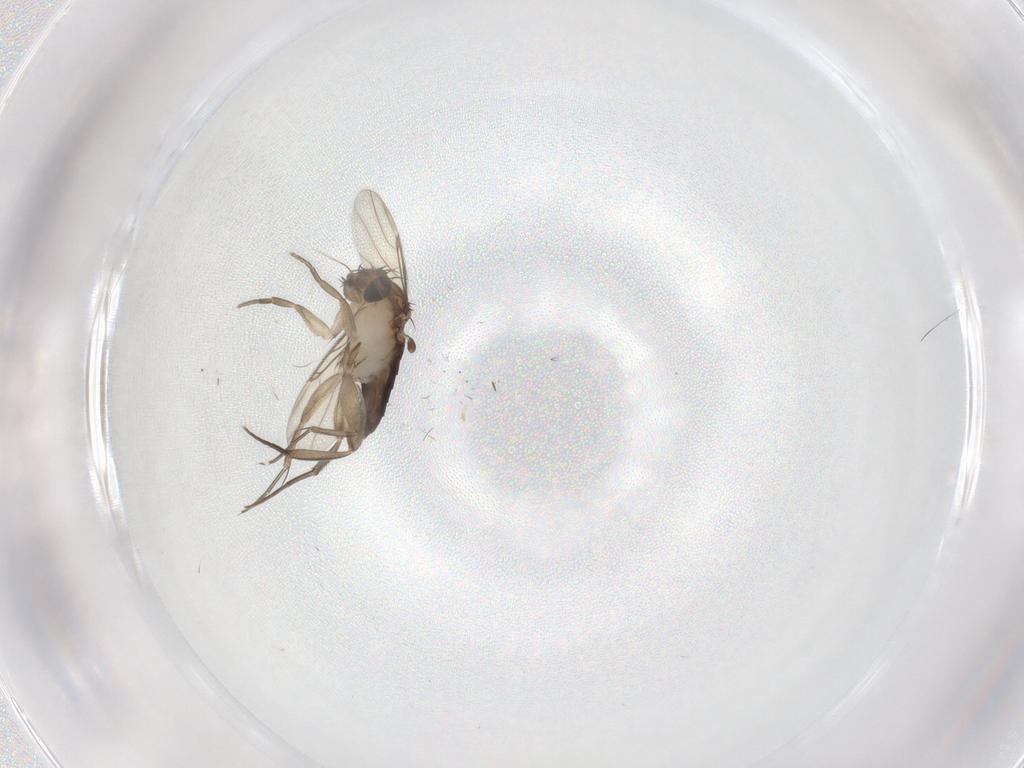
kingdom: Animalia
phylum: Arthropoda
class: Insecta
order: Diptera
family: Phoridae
